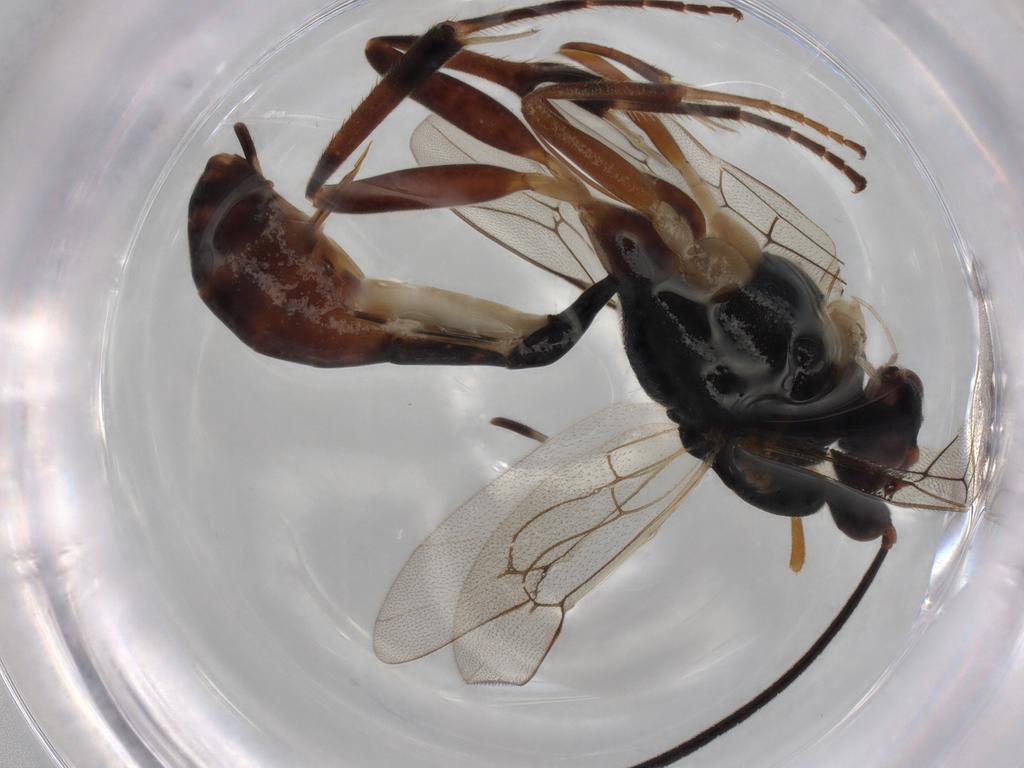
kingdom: Animalia
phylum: Arthropoda
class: Insecta
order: Hymenoptera
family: Ichneumonidae
